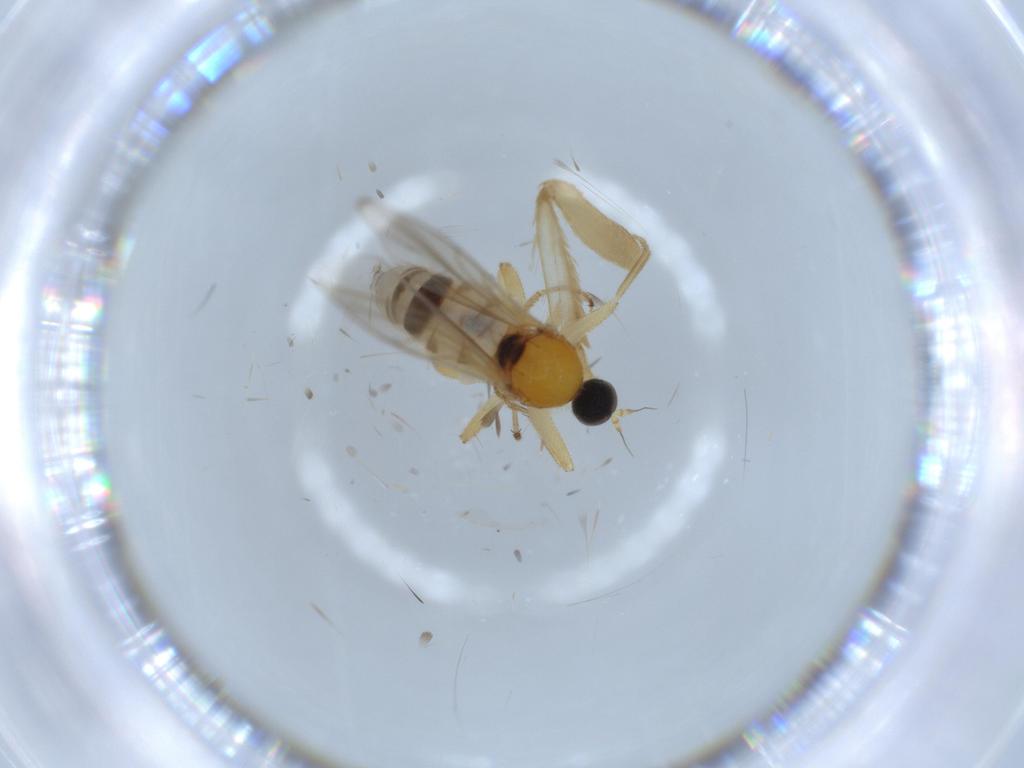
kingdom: Animalia
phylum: Arthropoda
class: Insecta
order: Diptera
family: Hybotidae
